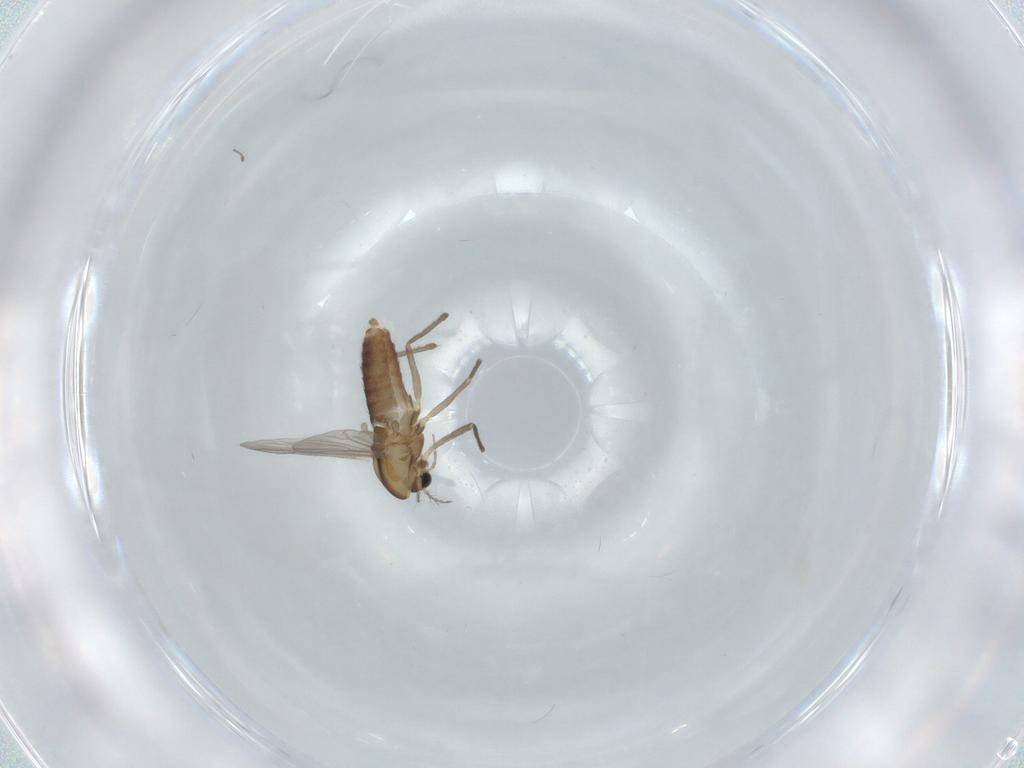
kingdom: Animalia
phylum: Arthropoda
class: Insecta
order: Diptera
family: Chironomidae
